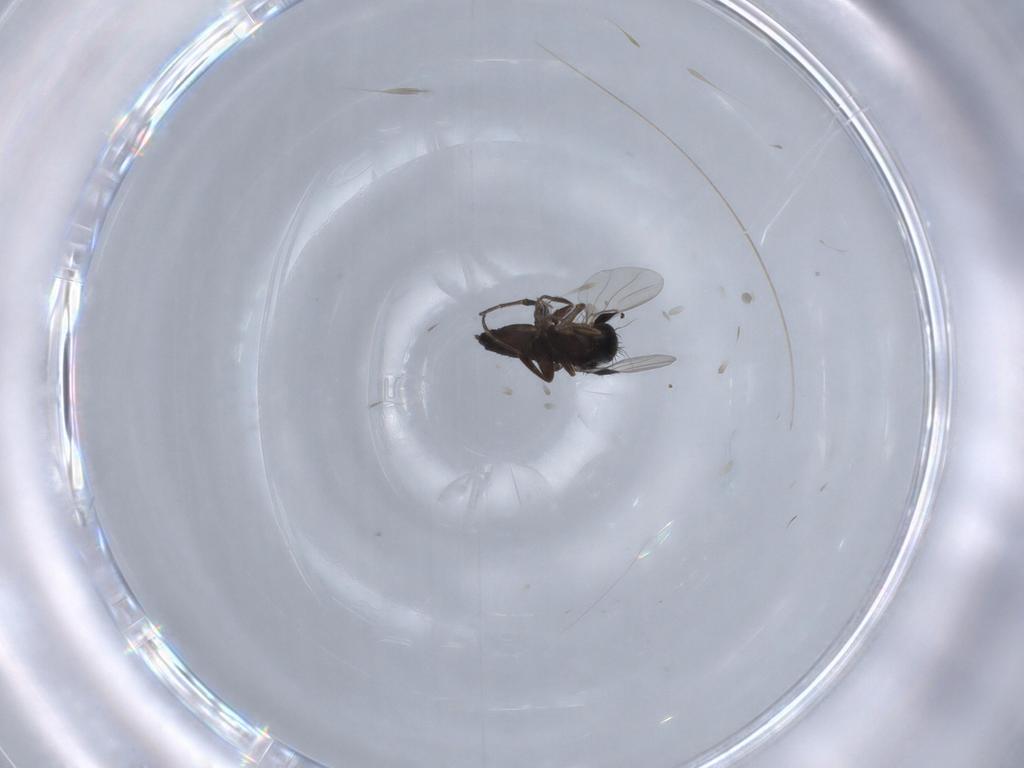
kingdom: Animalia
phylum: Arthropoda
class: Insecta
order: Diptera
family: Phoridae
